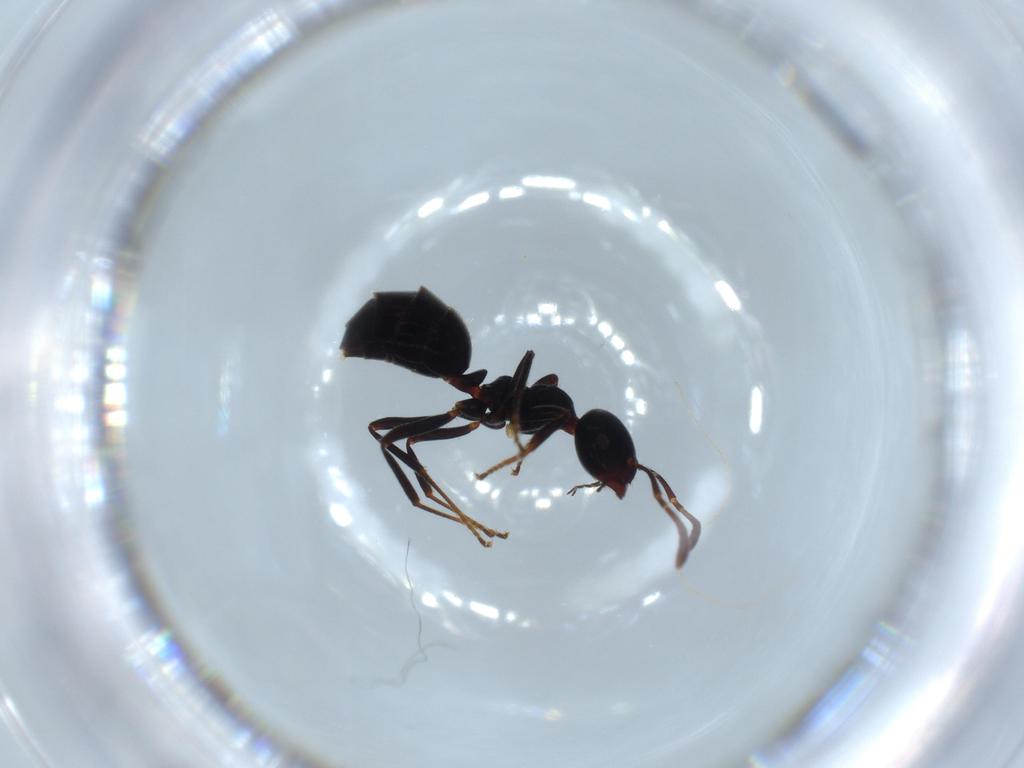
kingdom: Animalia
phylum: Arthropoda
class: Insecta
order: Hymenoptera
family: Formicidae
